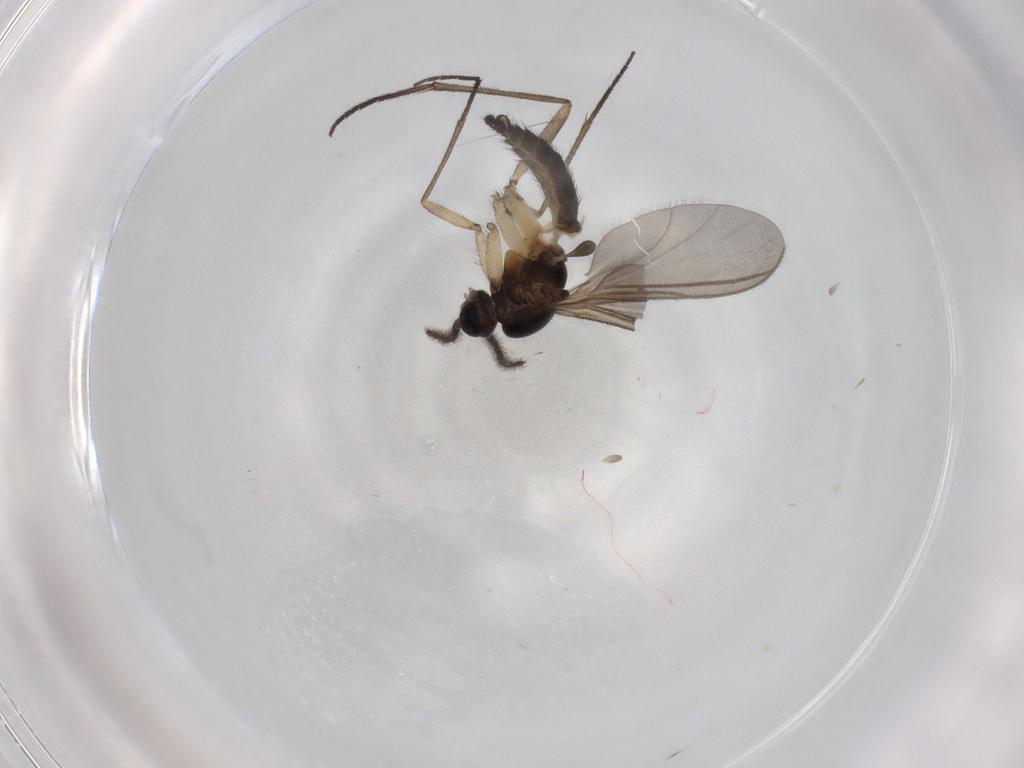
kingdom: Animalia
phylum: Arthropoda
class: Insecta
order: Diptera
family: Sciaridae
